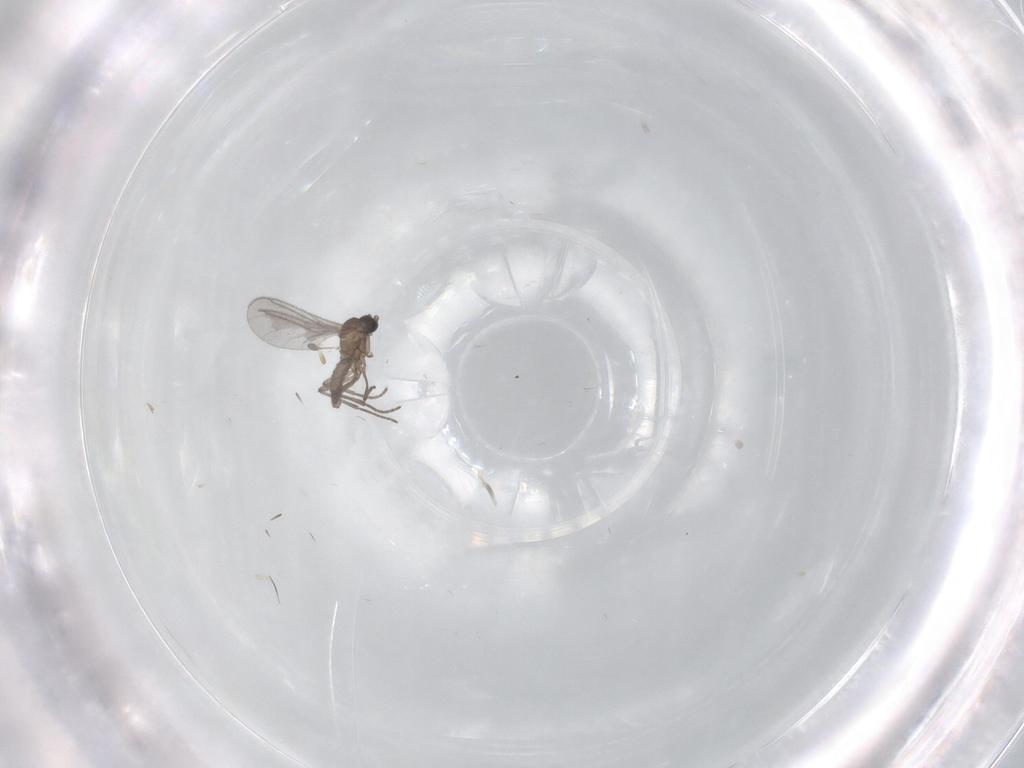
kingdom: Animalia
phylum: Arthropoda
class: Insecta
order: Diptera
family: Sciaridae
